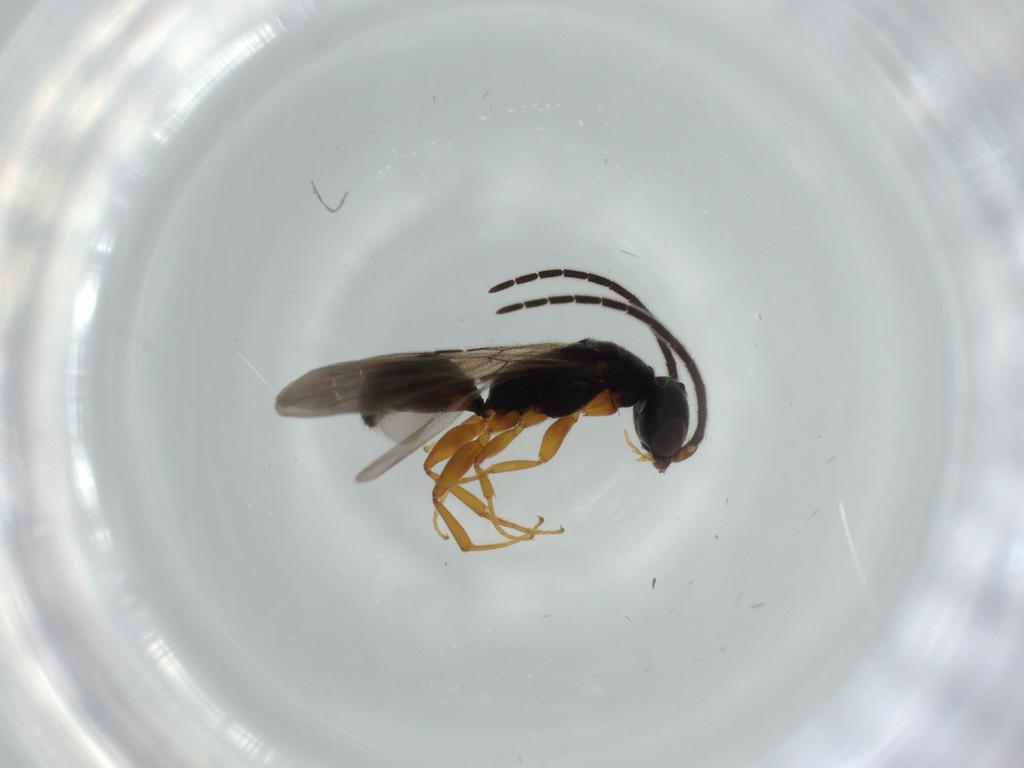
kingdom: Animalia
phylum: Arthropoda
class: Insecta
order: Hymenoptera
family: Bethylidae
